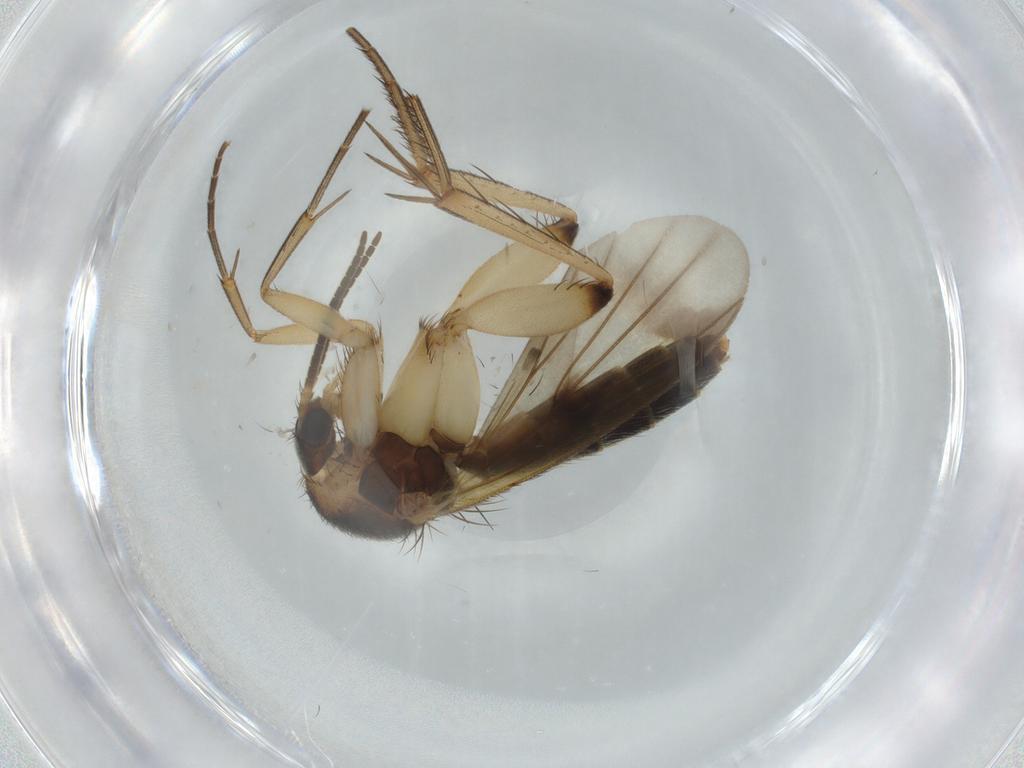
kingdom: Animalia
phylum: Arthropoda
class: Insecta
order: Diptera
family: Mycetophilidae
